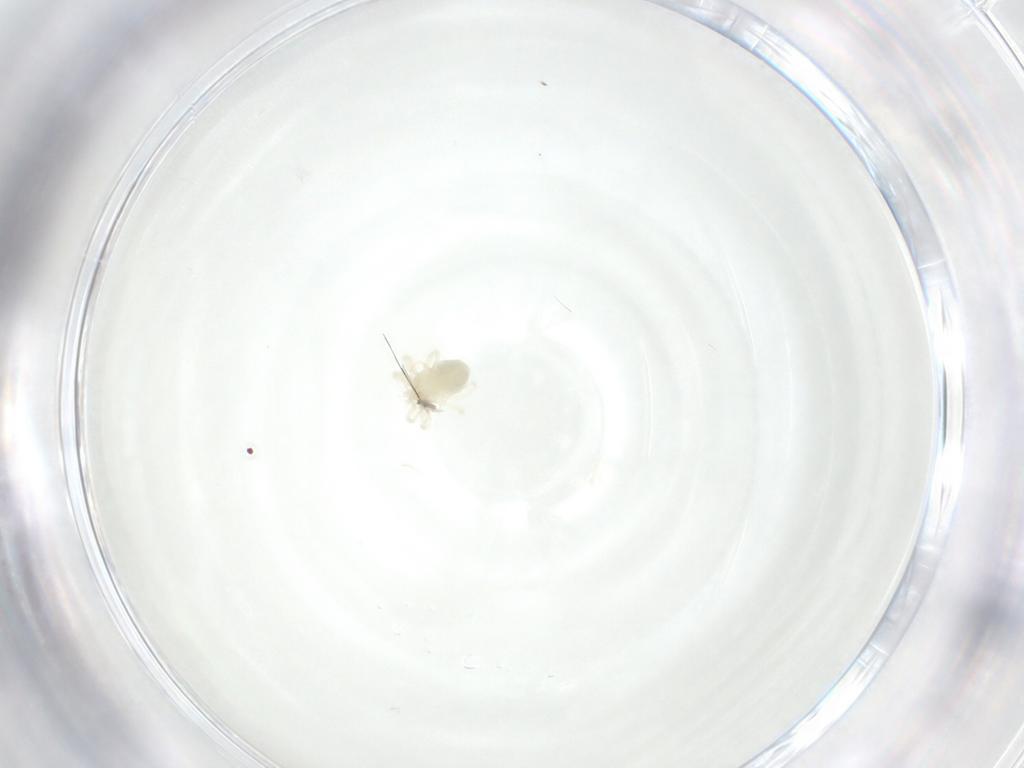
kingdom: Animalia
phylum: Arthropoda
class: Arachnida
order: Trombidiformes
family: Anystidae
